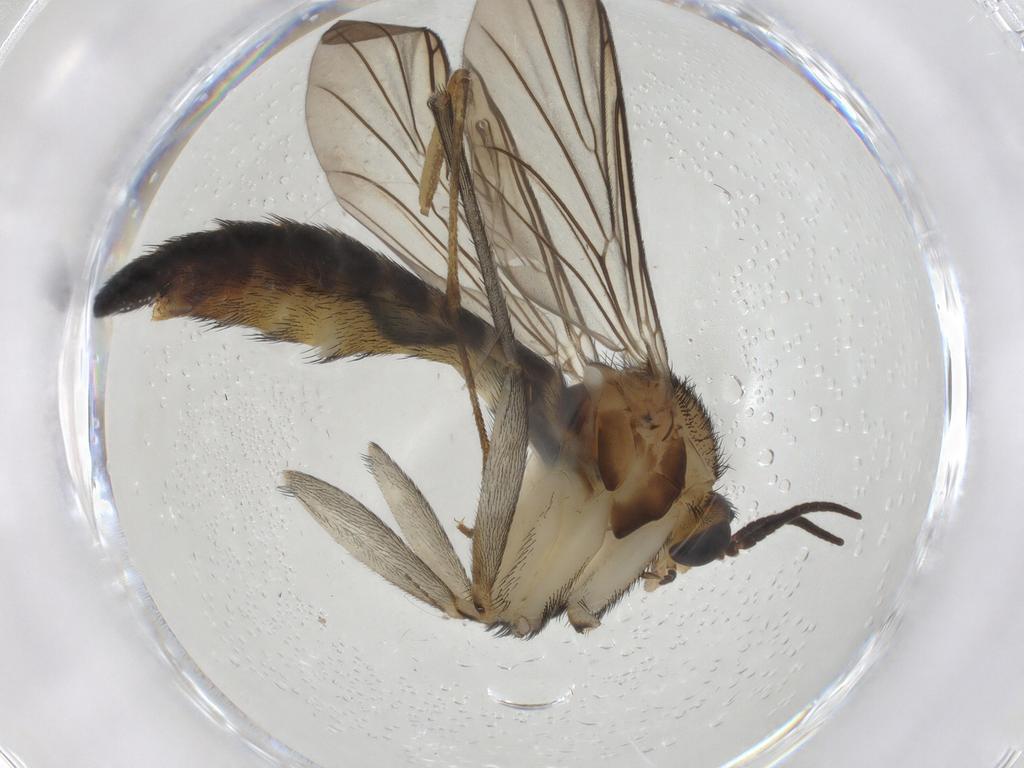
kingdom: Animalia
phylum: Arthropoda
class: Insecta
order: Diptera
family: Keroplatidae
